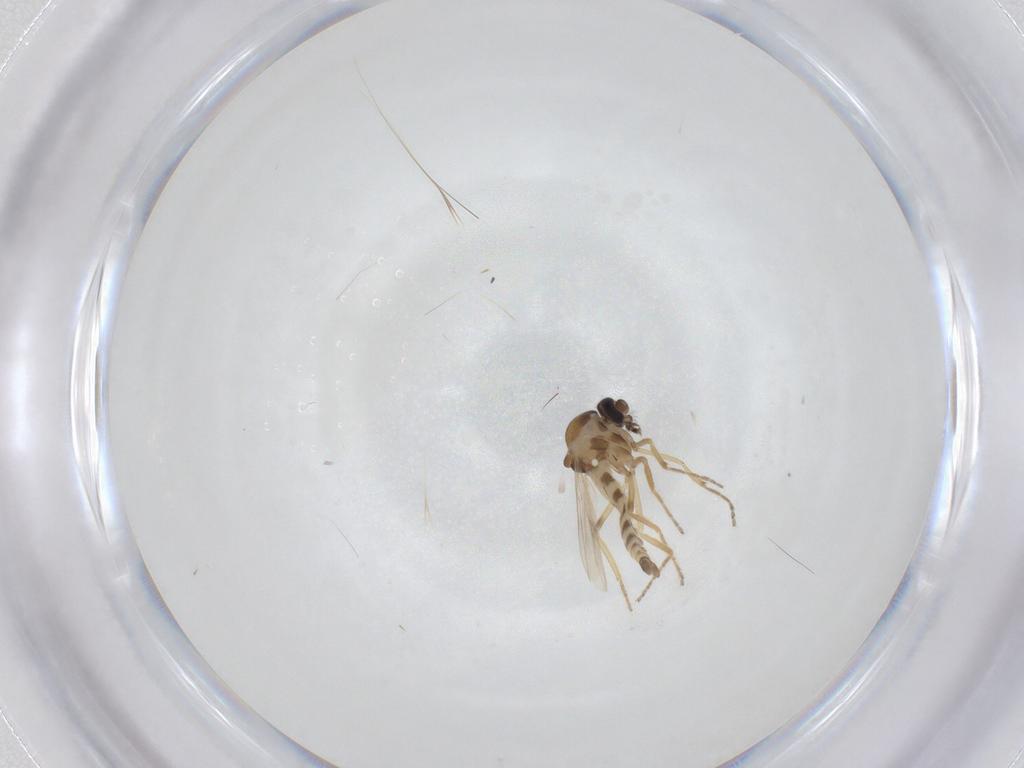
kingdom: Animalia
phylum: Arthropoda
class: Insecta
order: Diptera
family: Ceratopogonidae
